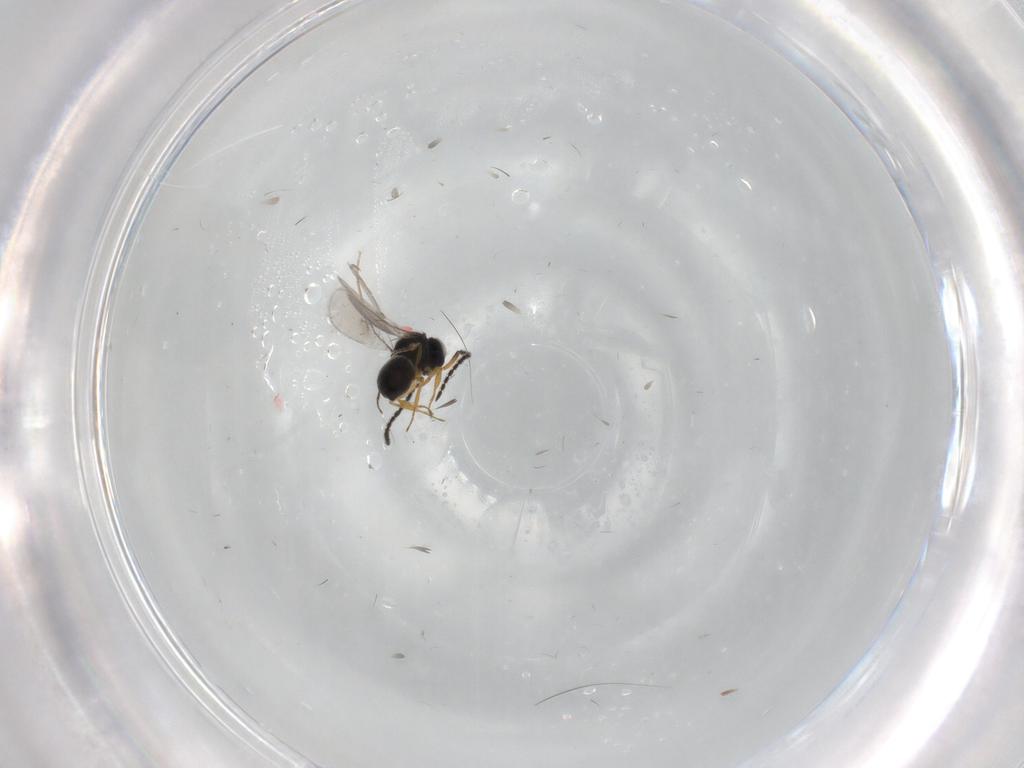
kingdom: Animalia
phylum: Arthropoda
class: Insecta
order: Hymenoptera
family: Scelionidae
